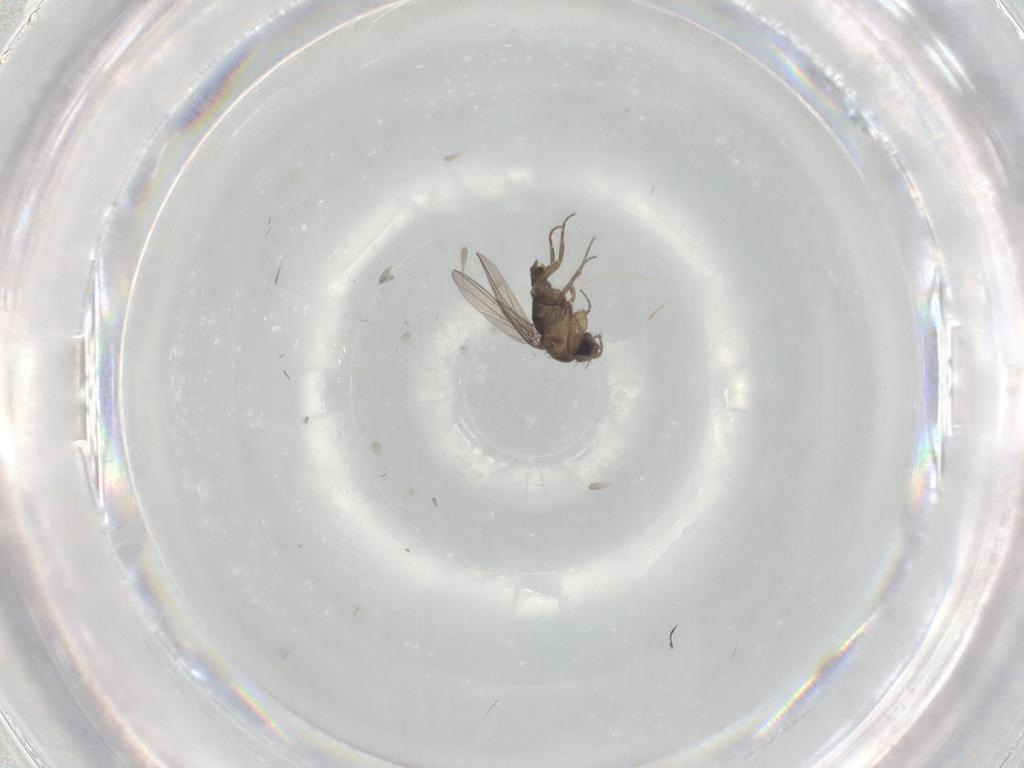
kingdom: Animalia
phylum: Arthropoda
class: Insecta
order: Diptera
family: Phoridae
